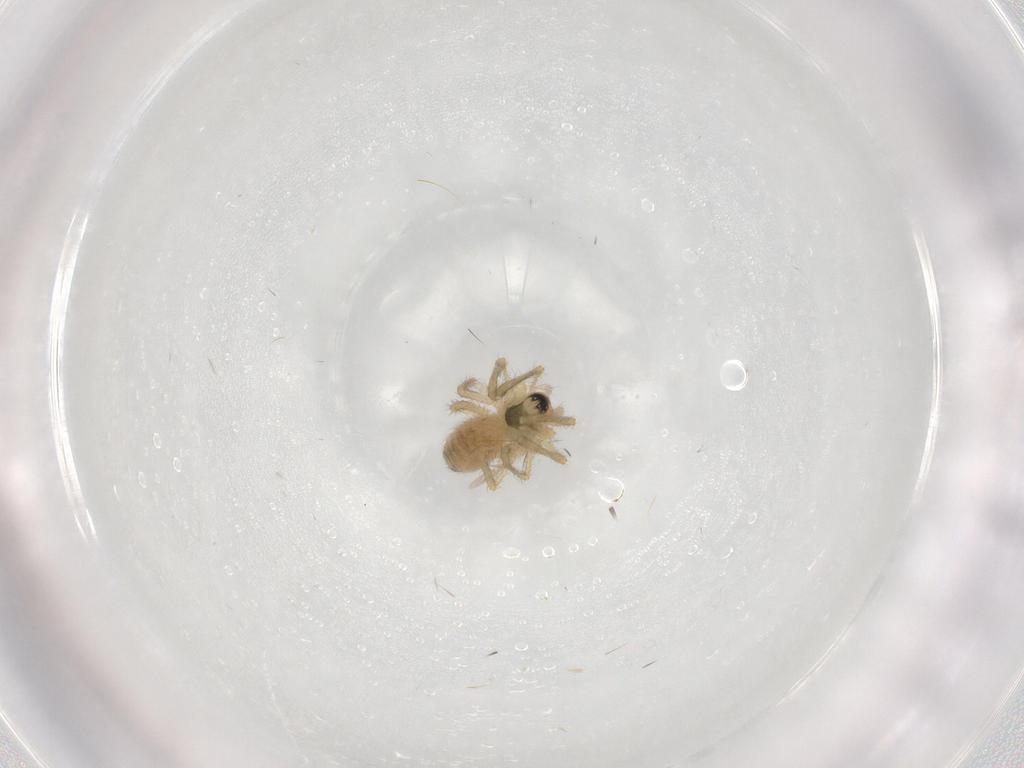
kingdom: Animalia
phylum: Arthropoda
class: Arachnida
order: Araneae
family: Linyphiidae
